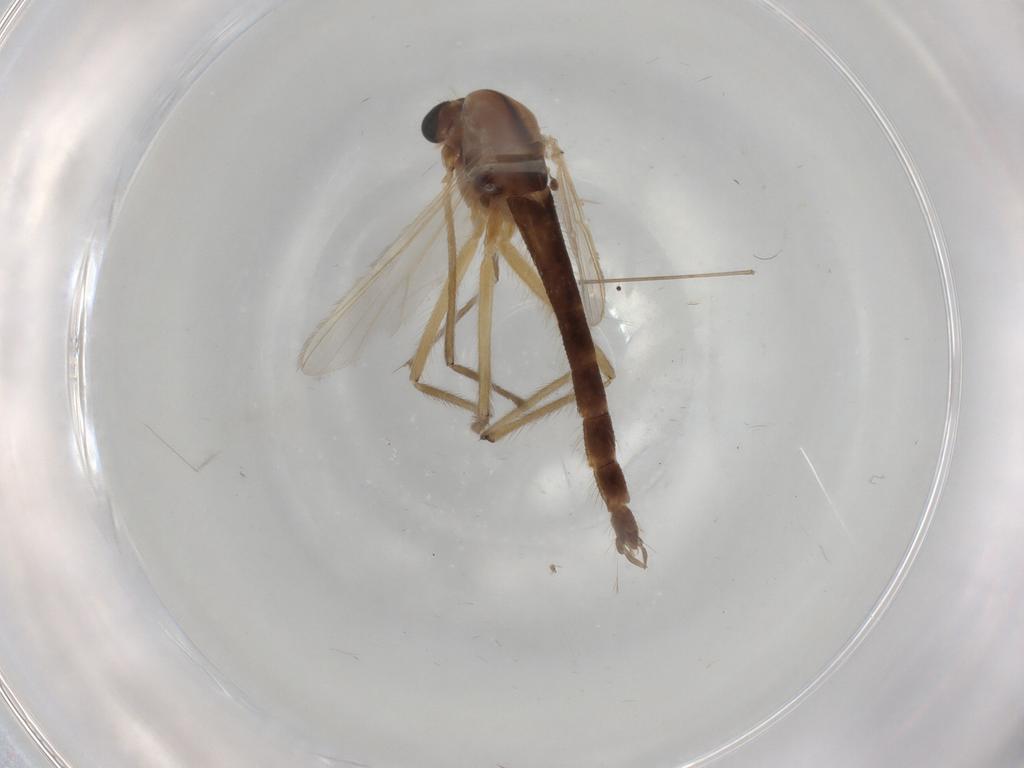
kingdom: Animalia
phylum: Arthropoda
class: Insecta
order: Diptera
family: Chironomidae
